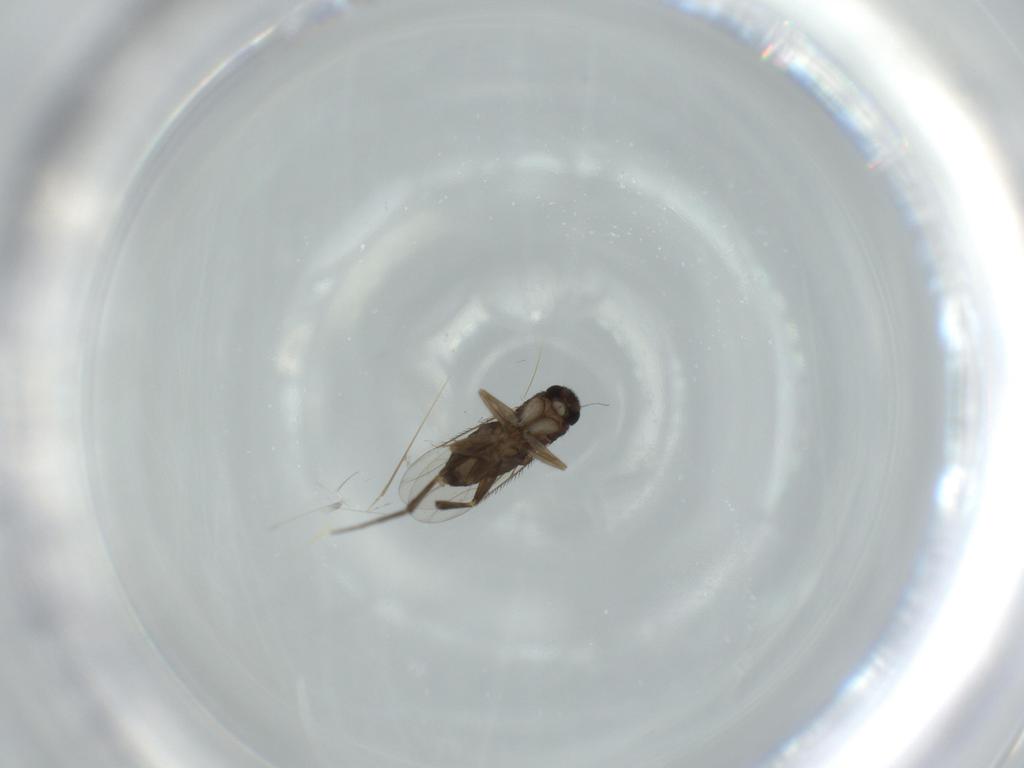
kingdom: Animalia
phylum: Arthropoda
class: Insecta
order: Diptera
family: Phoridae
